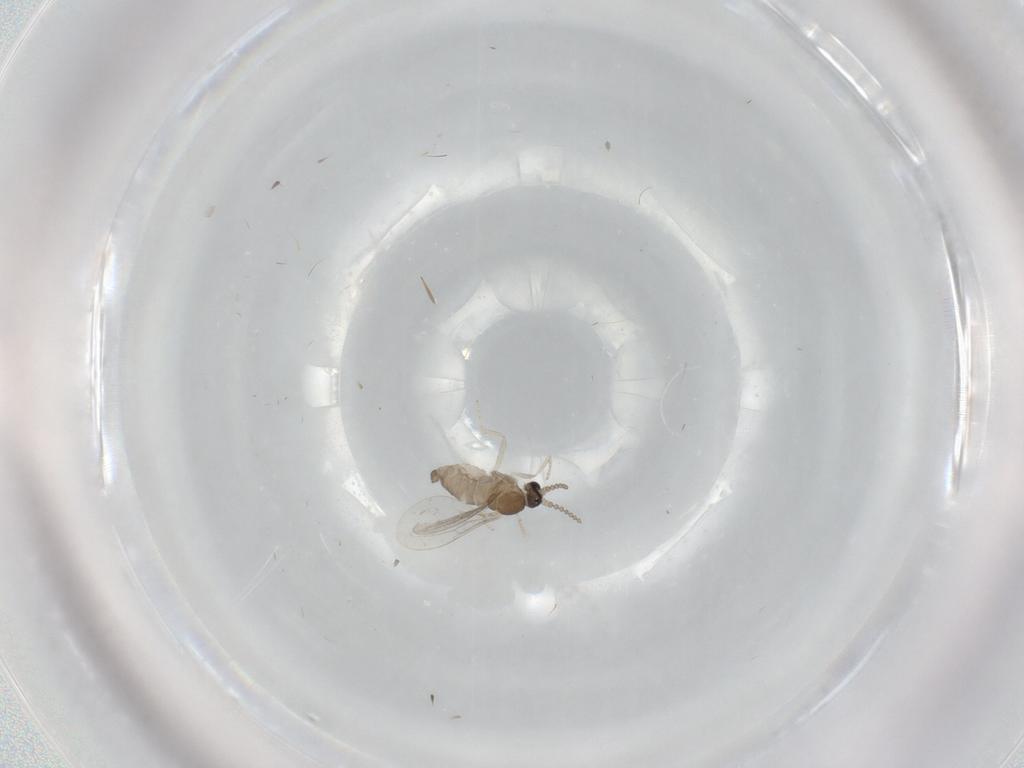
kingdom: Animalia
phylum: Arthropoda
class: Insecta
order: Diptera
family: Cecidomyiidae
